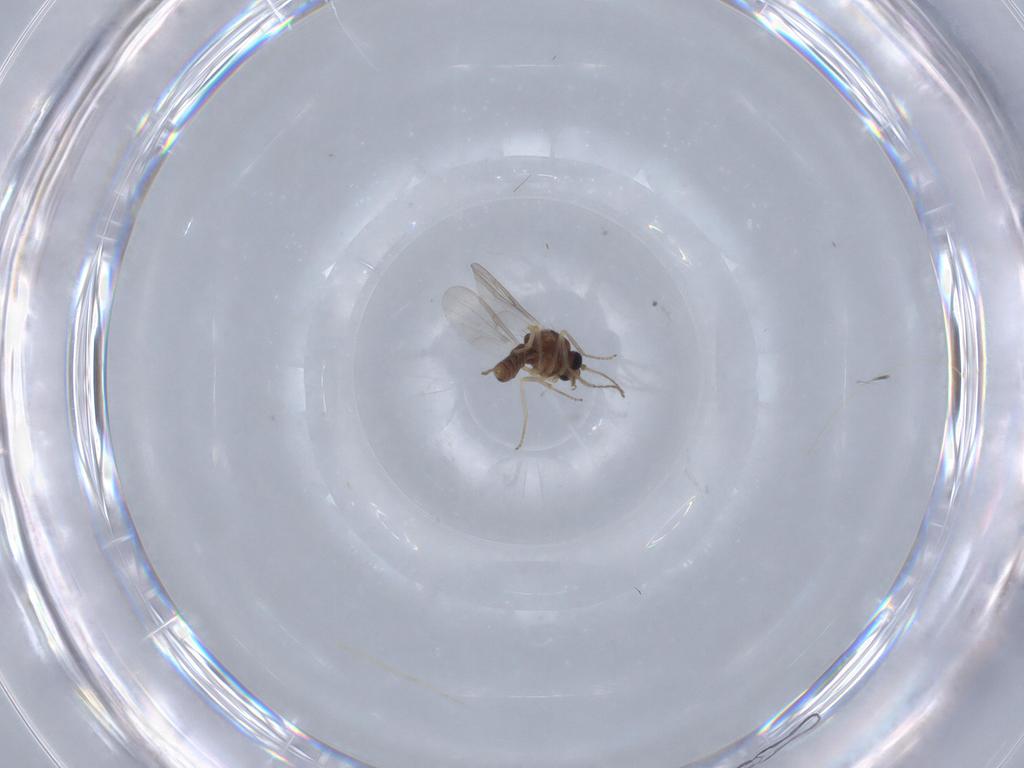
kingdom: Animalia
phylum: Arthropoda
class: Insecta
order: Diptera
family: Ceratopogonidae
